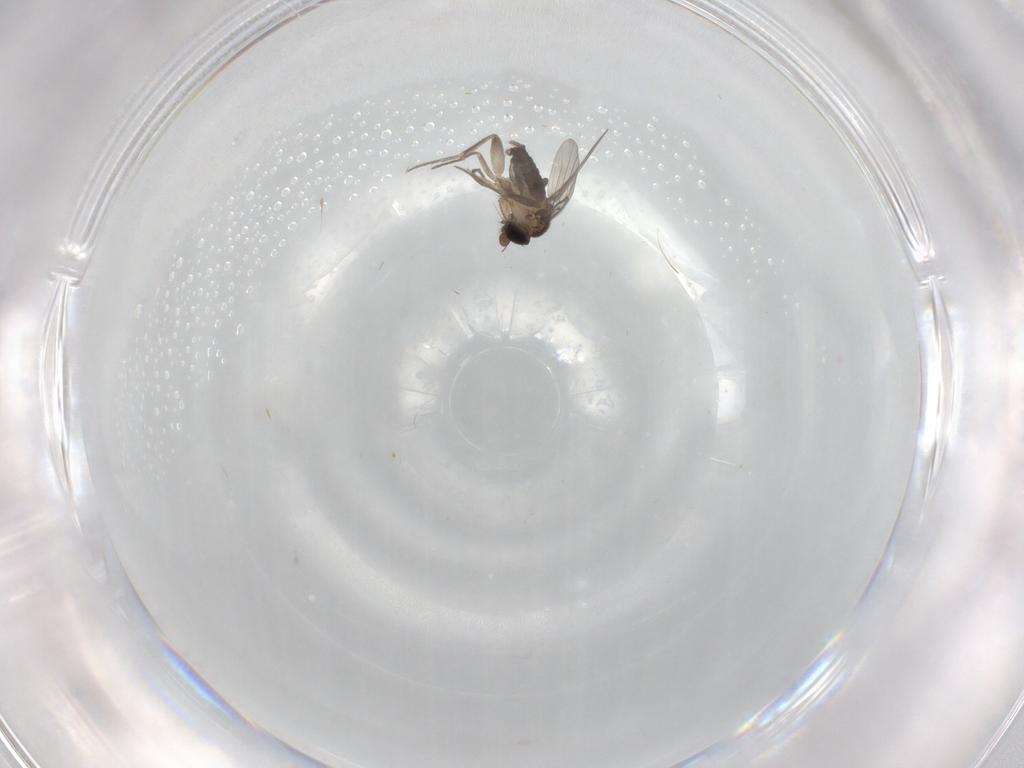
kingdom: Animalia
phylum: Arthropoda
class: Insecta
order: Diptera
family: Phoridae
